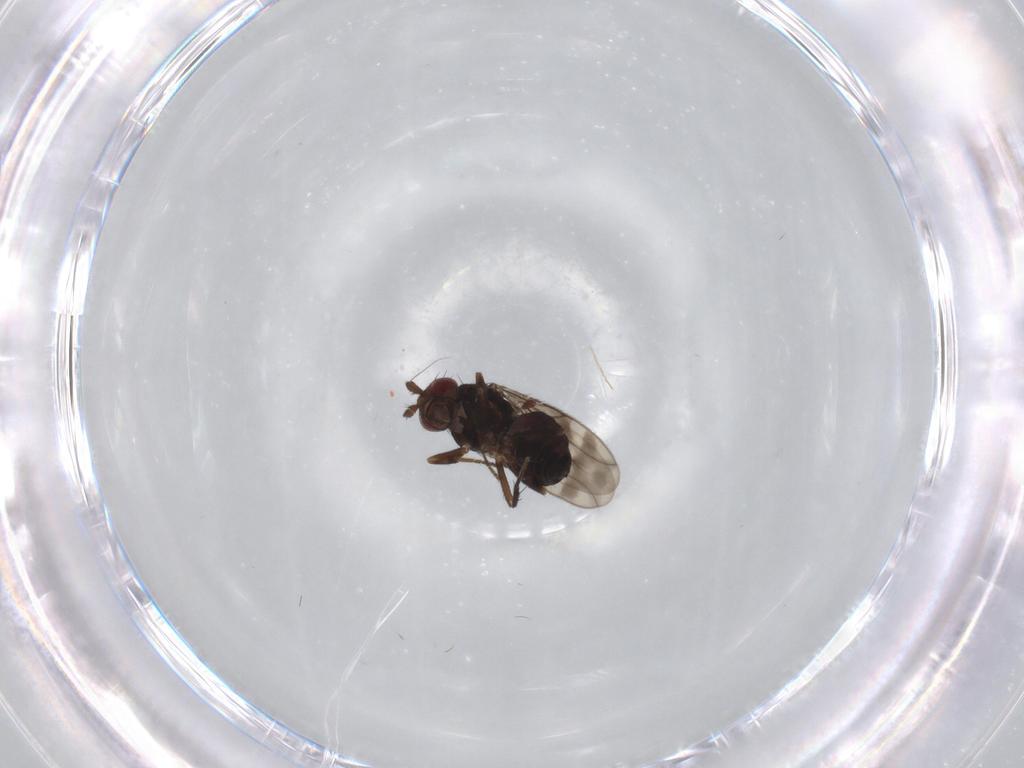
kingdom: Animalia
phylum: Arthropoda
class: Insecta
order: Diptera
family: Sphaeroceridae
